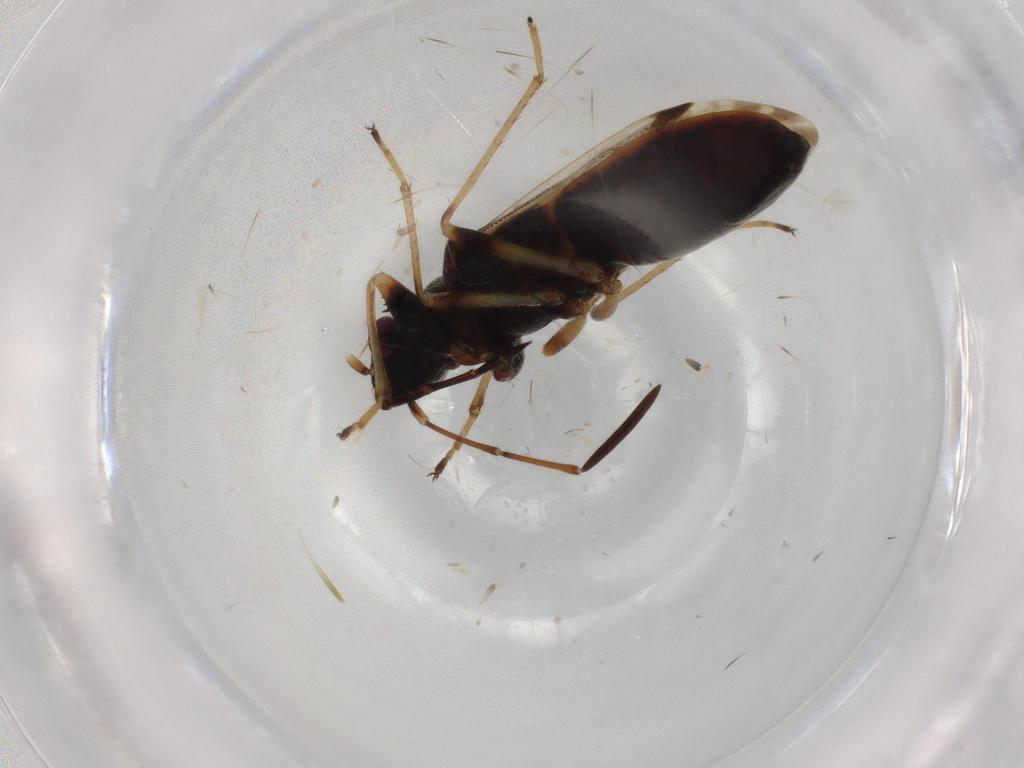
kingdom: Animalia
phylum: Arthropoda
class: Insecta
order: Hemiptera
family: Rhyparochromidae
